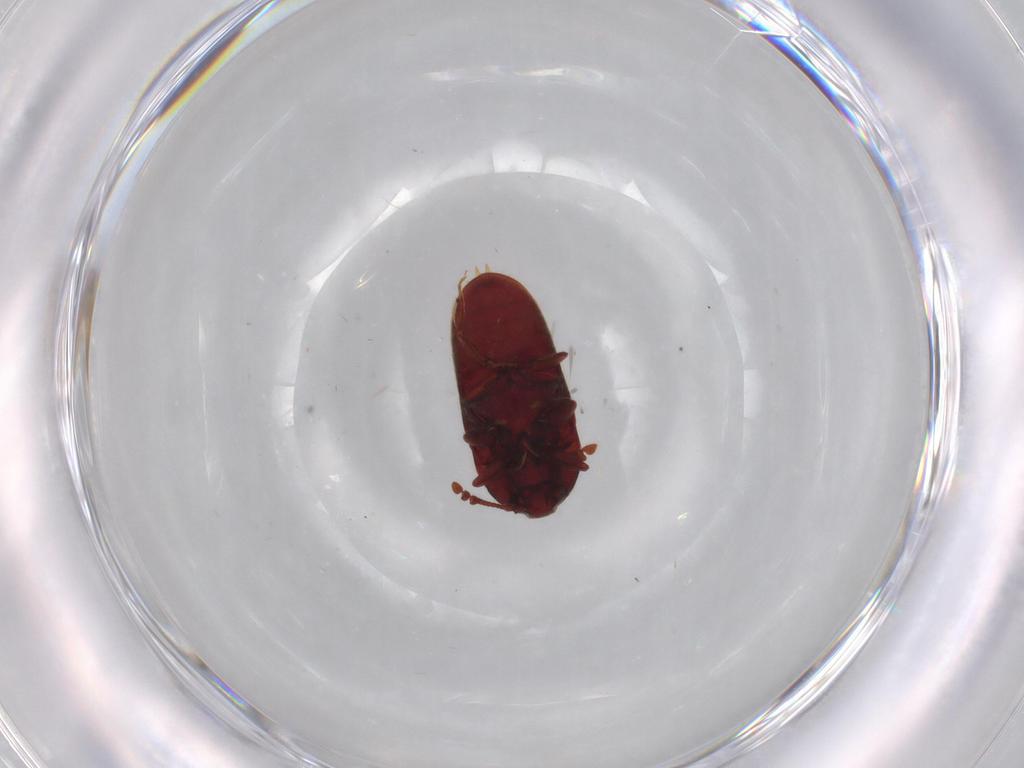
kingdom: Animalia
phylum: Arthropoda
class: Insecta
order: Coleoptera
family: Throscidae
